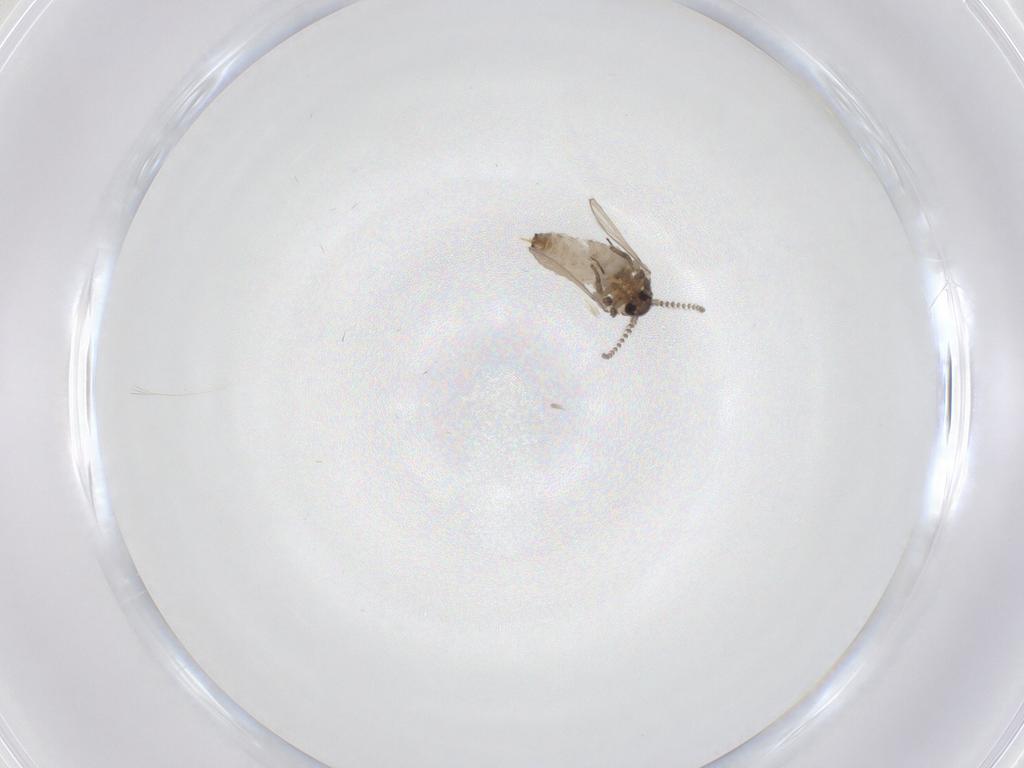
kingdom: Animalia
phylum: Arthropoda
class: Insecta
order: Diptera
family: Psychodidae
